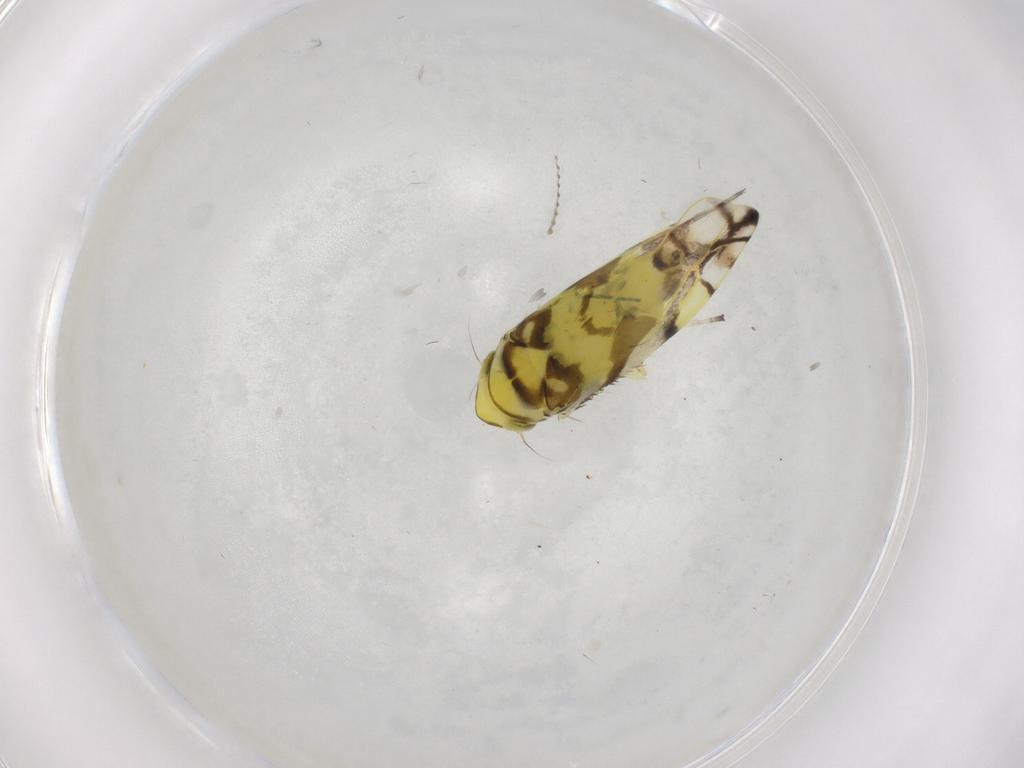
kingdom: Animalia
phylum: Arthropoda
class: Insecta
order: Hemiptera
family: Cicadellidae
